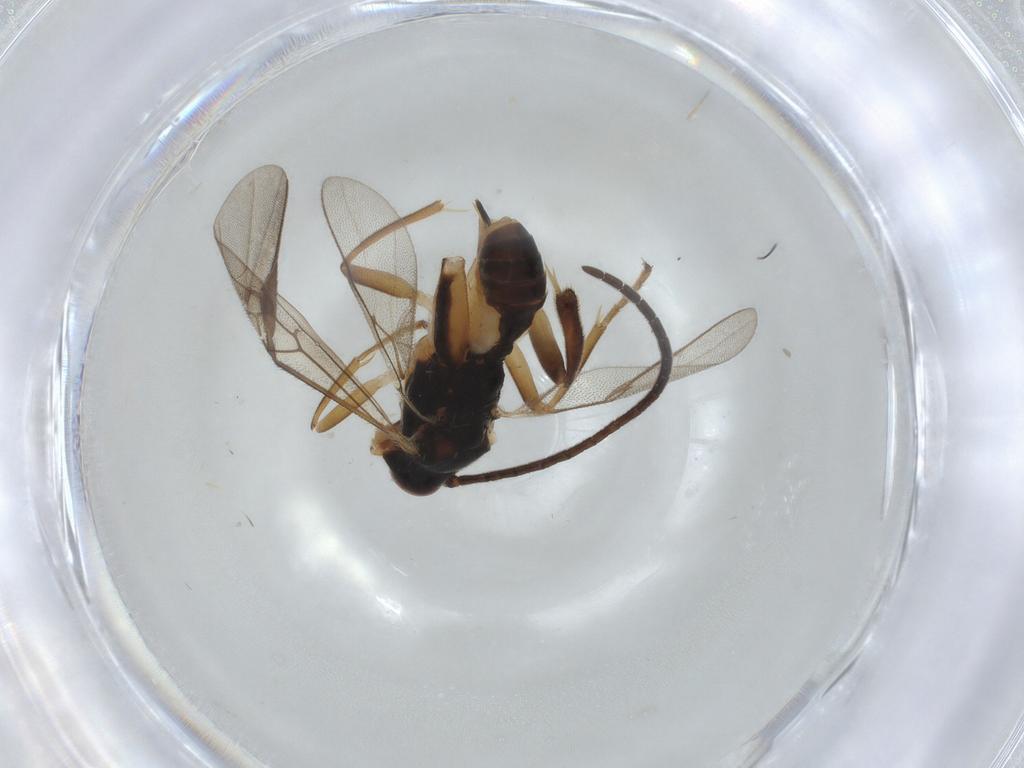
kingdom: Animalia
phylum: Arthropoda
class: Insecta
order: Hymenoptera
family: Braconidae
